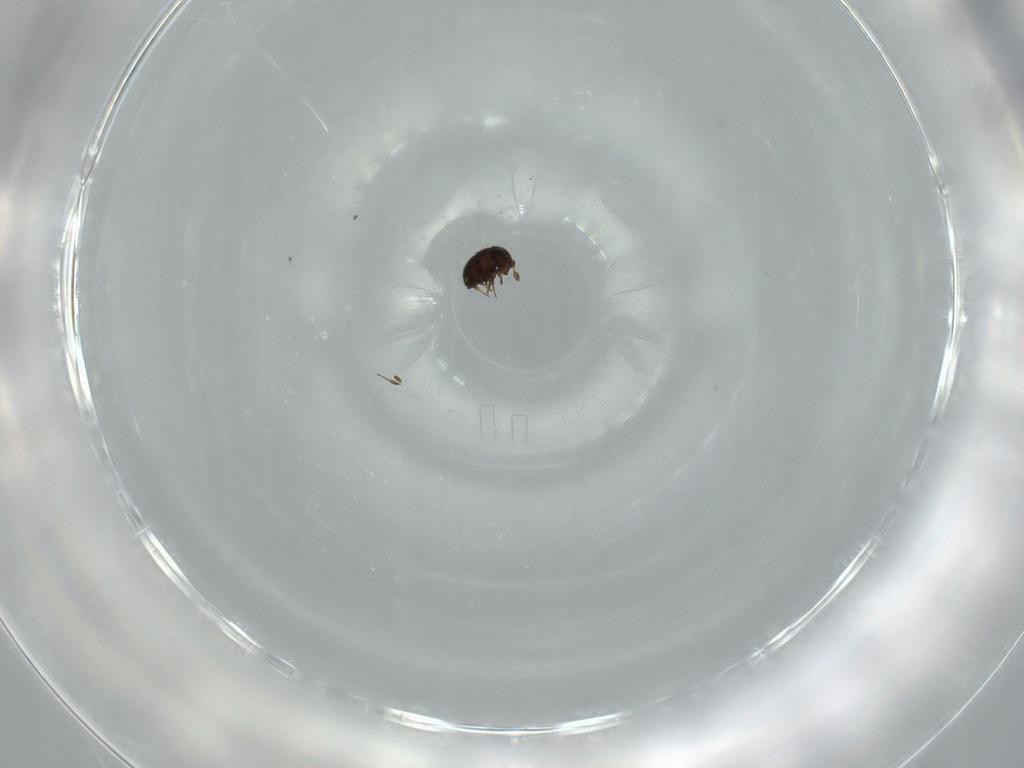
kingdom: Animalia
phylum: Arthropoda
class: Insecta
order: Hymenoptera
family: Scelionidae
